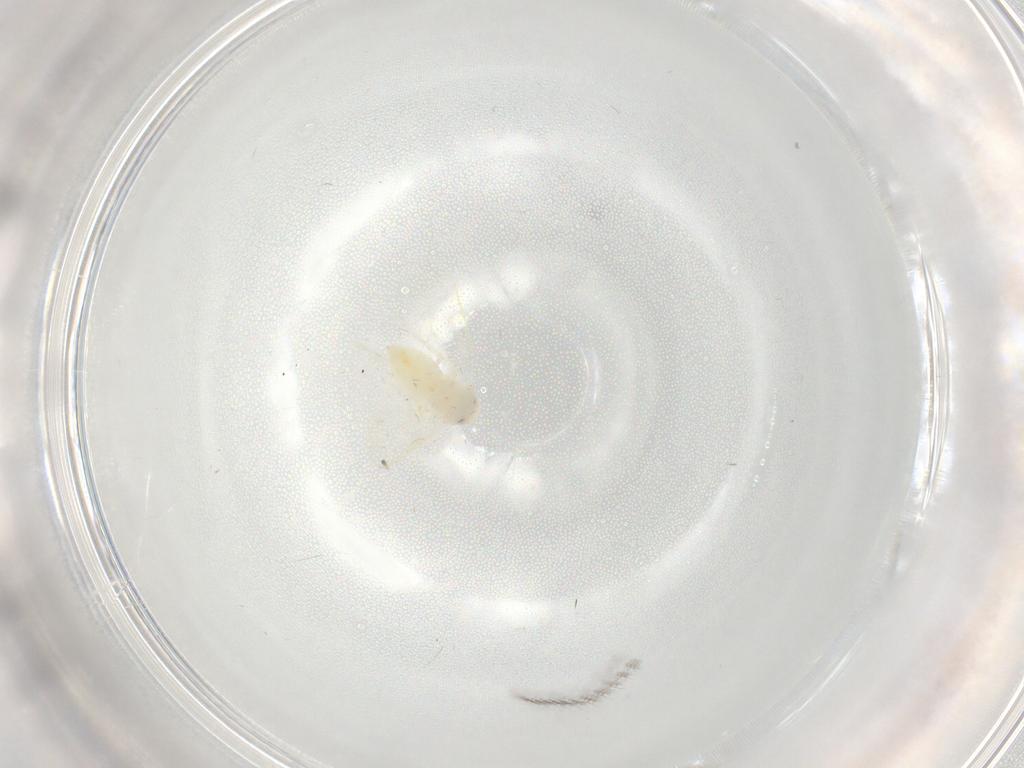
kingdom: Animalia
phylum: Arthropoda
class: Insecta
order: Hemiptera
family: Aleyrodidae
